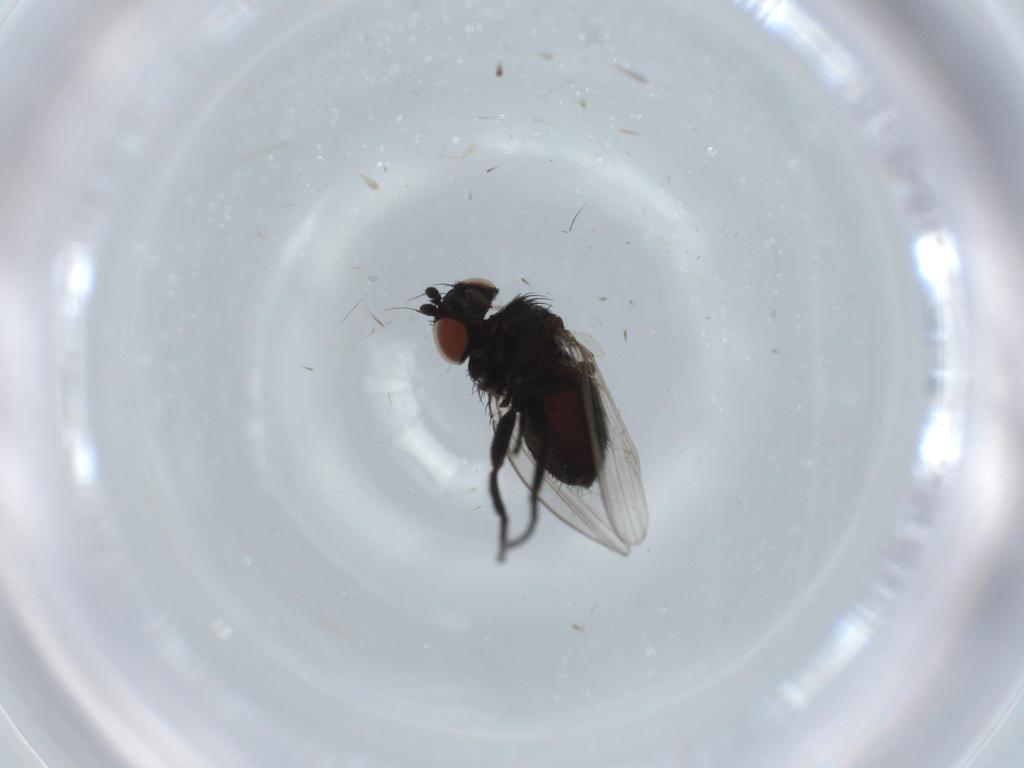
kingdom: Animalia
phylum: Arthropoda
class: Insecta
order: Diptera
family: Milichiidae
